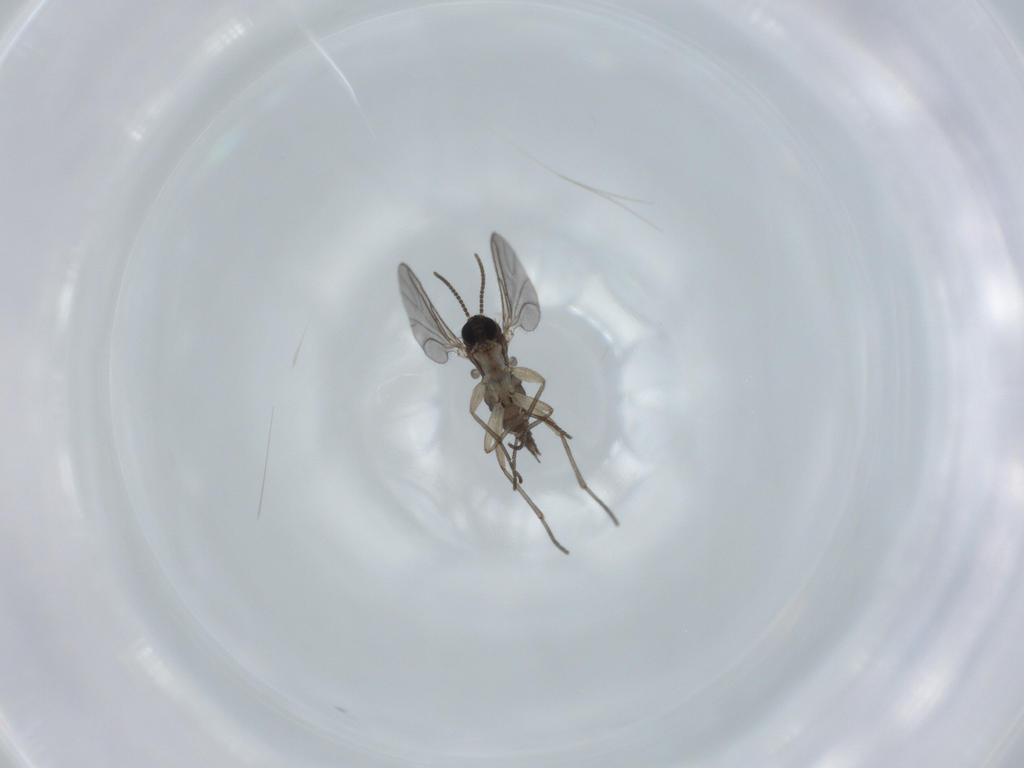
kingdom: Animalia
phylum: Arthropoda
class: Insecta
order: Diptera
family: Sciaridae
